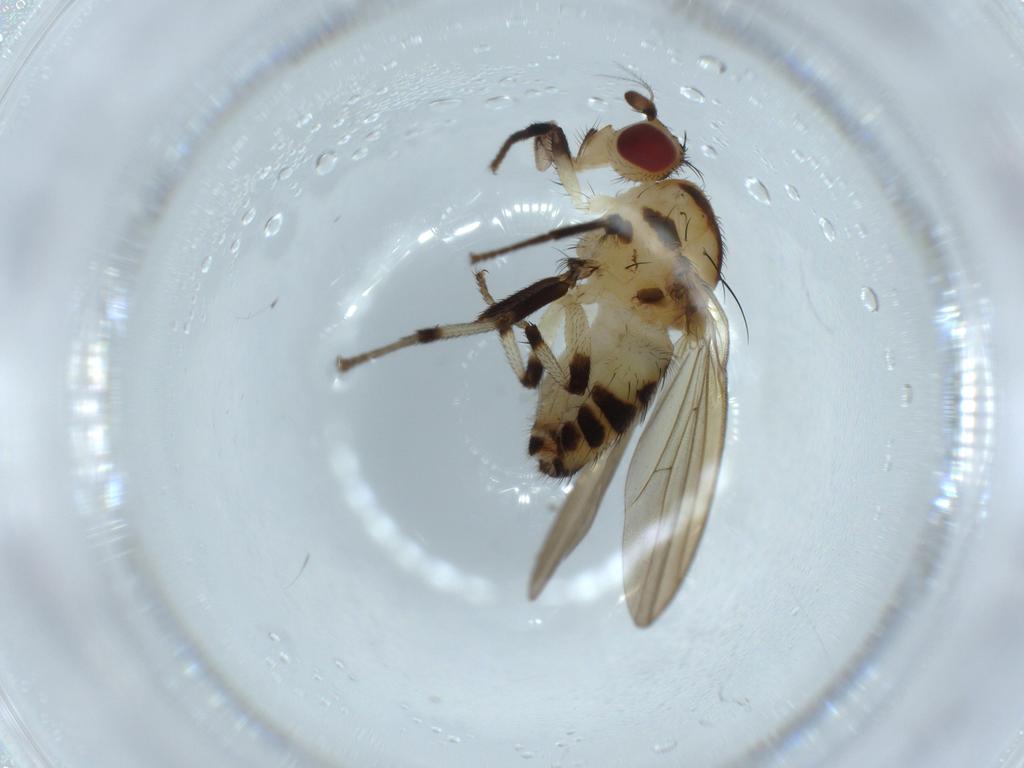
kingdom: Animalia
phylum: Arthropoda
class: Insecta
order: Diptera
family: Lauxaniidae
